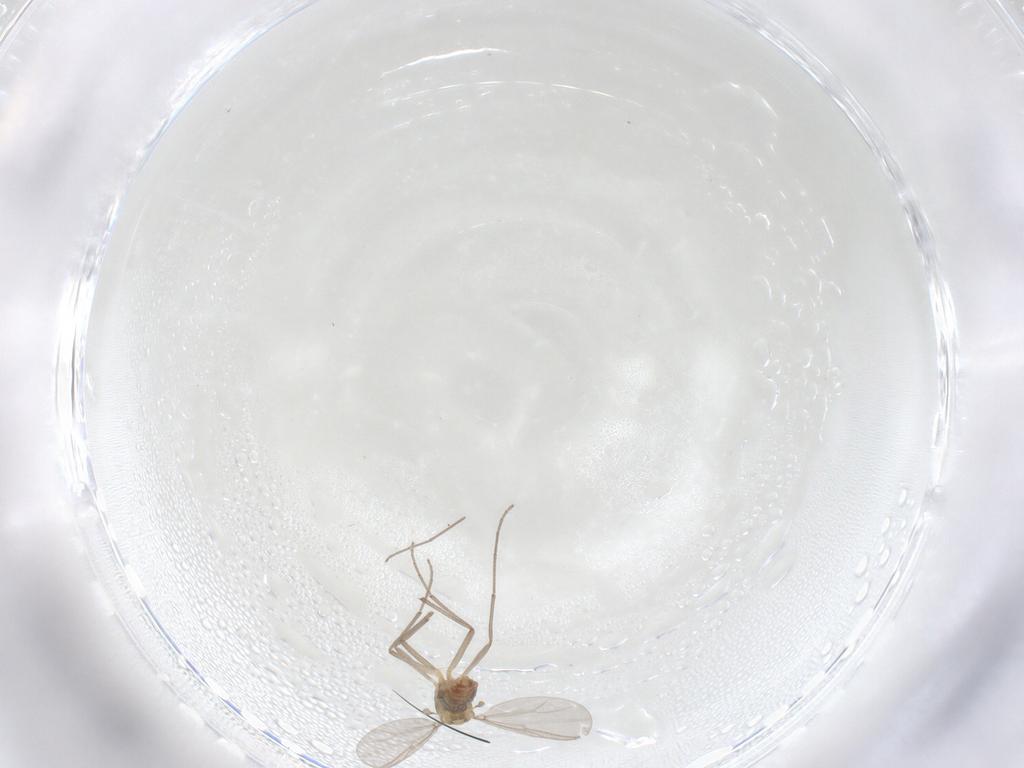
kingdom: Animalia
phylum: Arthropoda
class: Insecta
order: Diptera
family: Chironomidae
